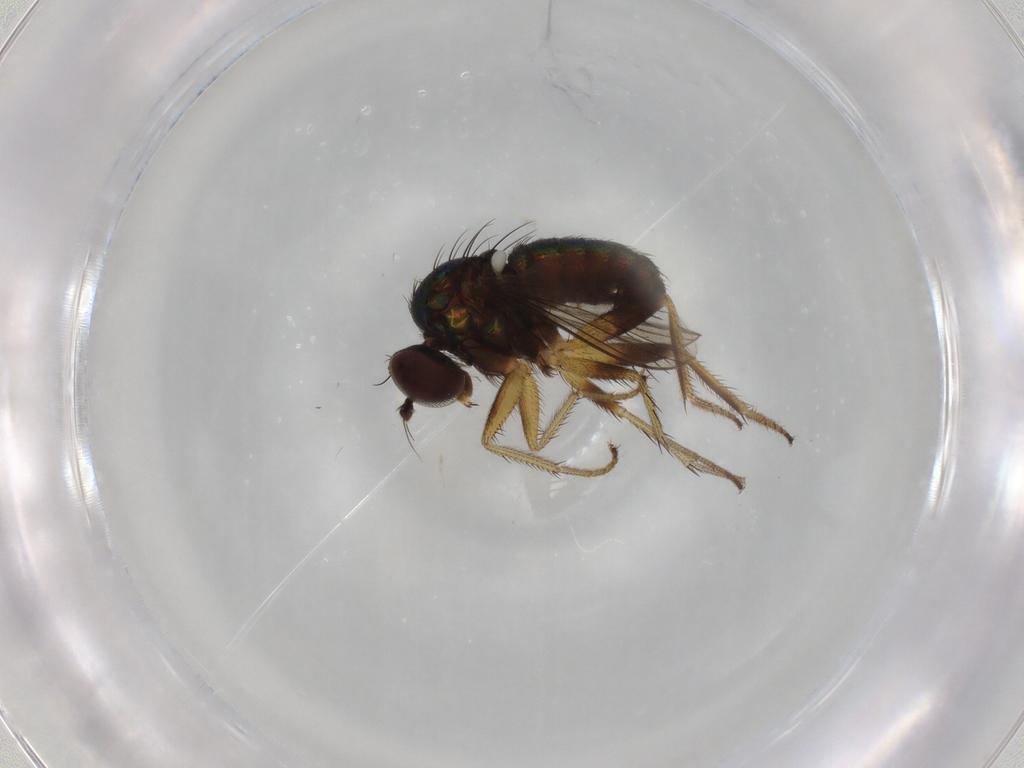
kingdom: Animalia
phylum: Arthropoda
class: Insecta
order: Diptera
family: Dolichopodidae
